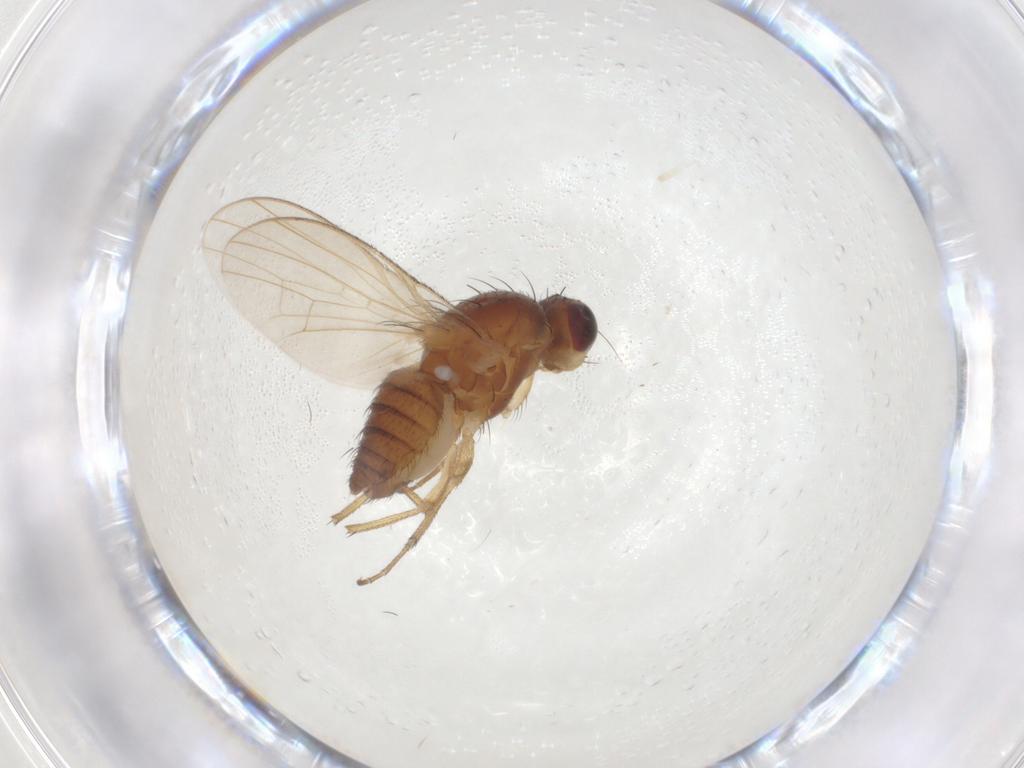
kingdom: Animalia
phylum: Arthropoda
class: Insecta
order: Diptera
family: Heleomyzidae
